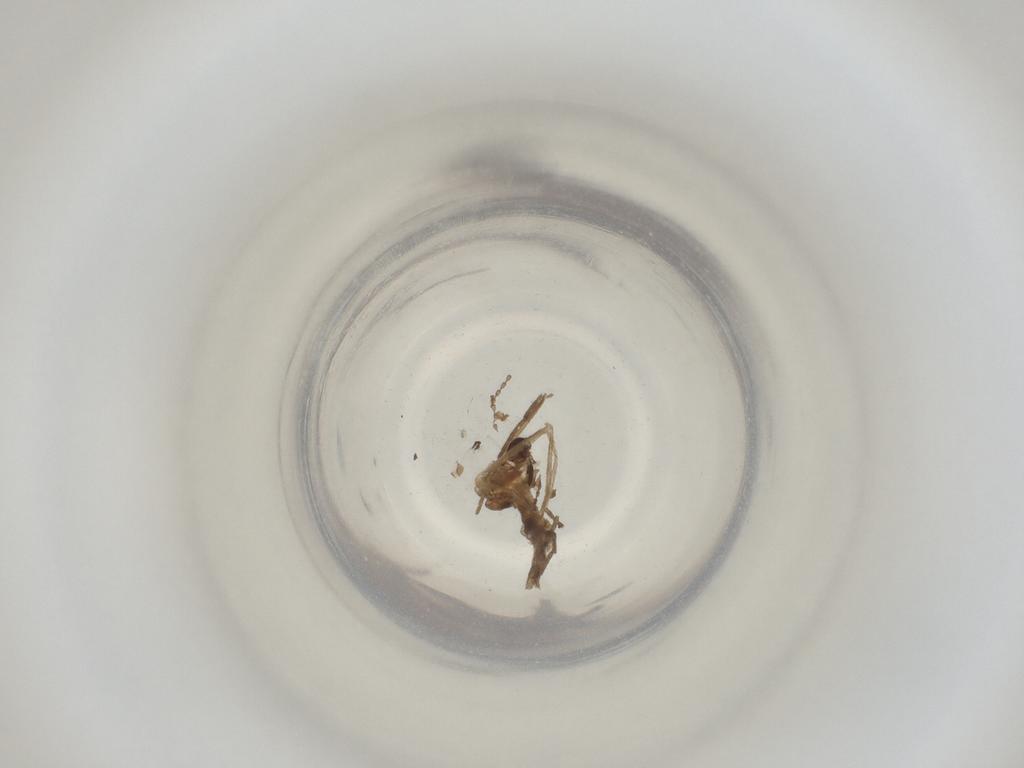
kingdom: Animalia
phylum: Arthropoda
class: Insecta
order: Diptera
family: Cecidomyiidae
